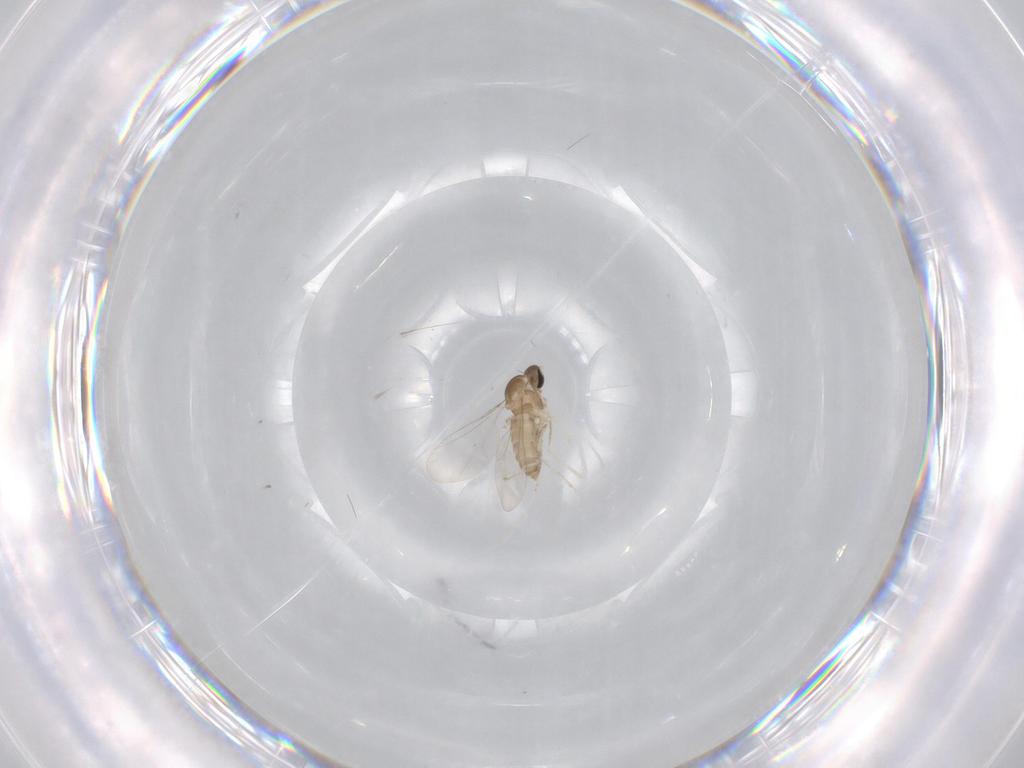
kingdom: Animalia
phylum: Arthropoda
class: Insecta
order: Diptera
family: Cecidomyiidae
